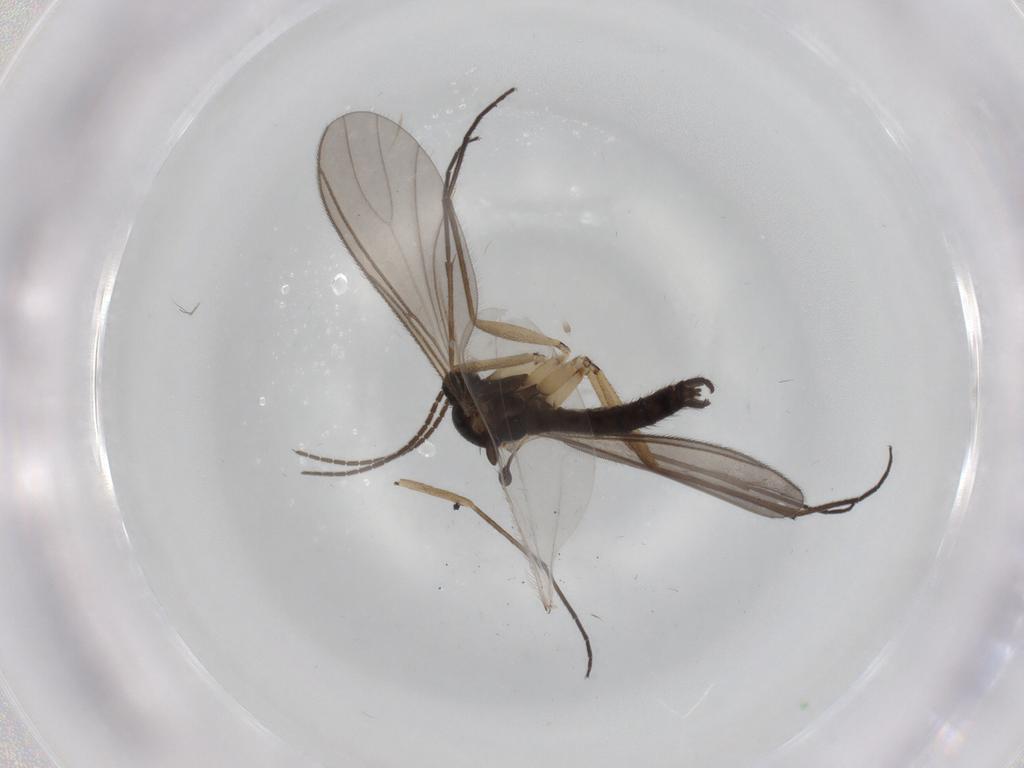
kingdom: Animalia
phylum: Arthropoda
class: Insecta
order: Diptera
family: Sciaridae
